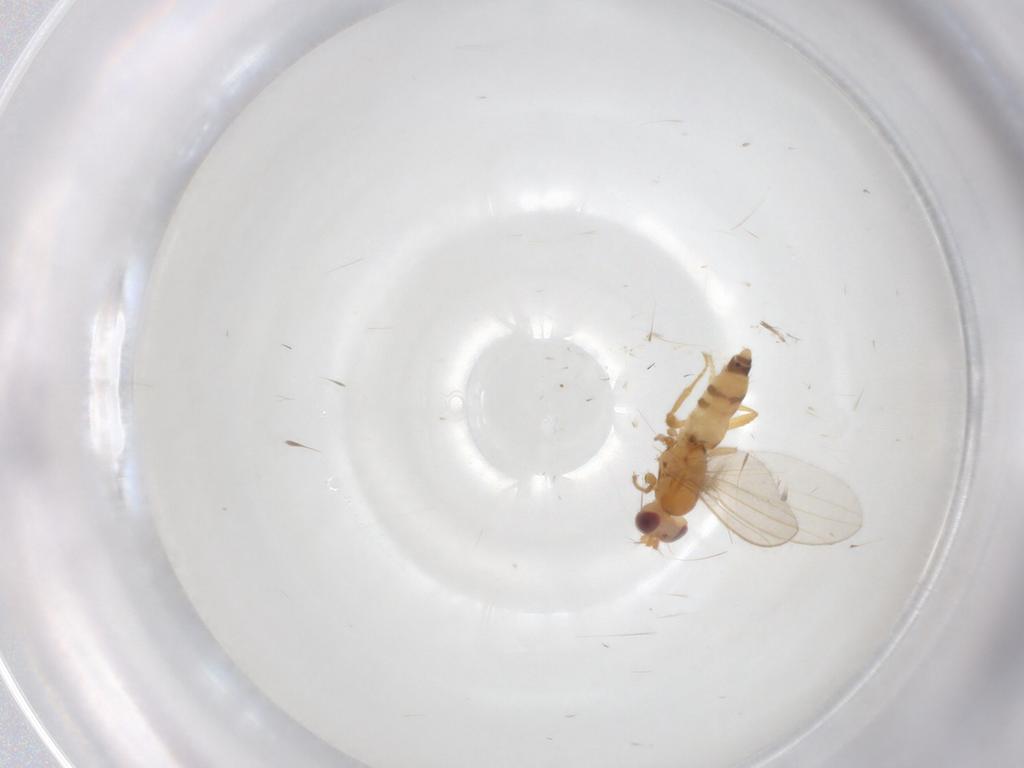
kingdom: Animalia
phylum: Arthropoda
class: Insecta
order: Diptera
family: Periscelididae
